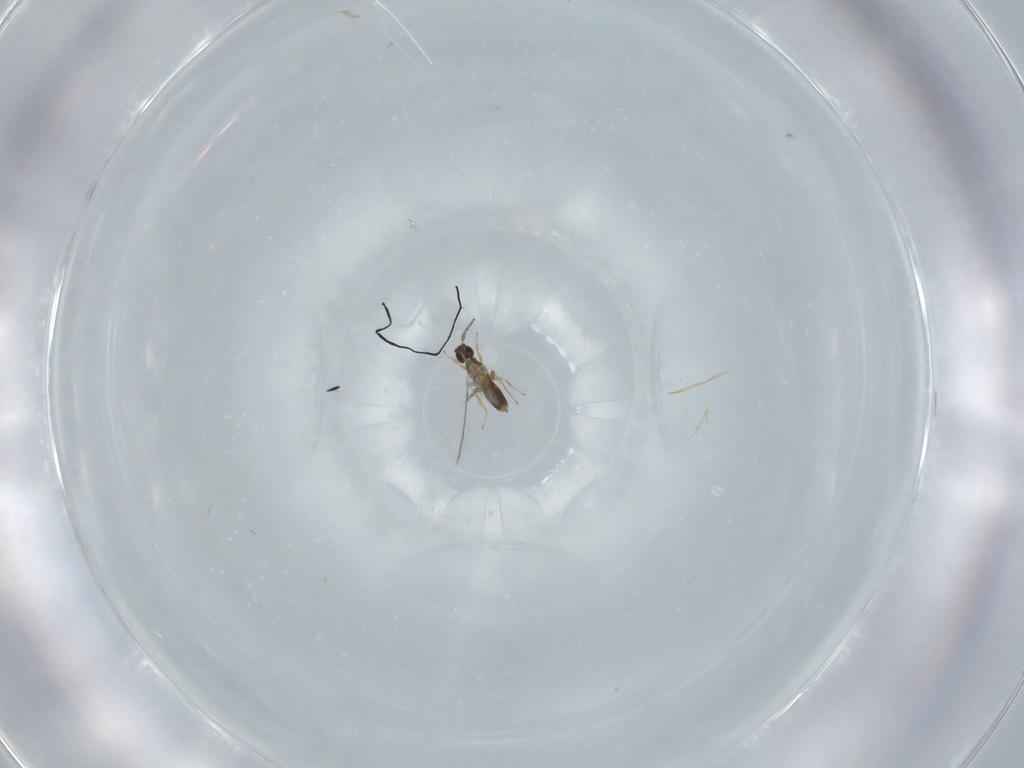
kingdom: Animalia
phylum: Arthropoda
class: Insecta
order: Hymenoptera
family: Mymaridae
